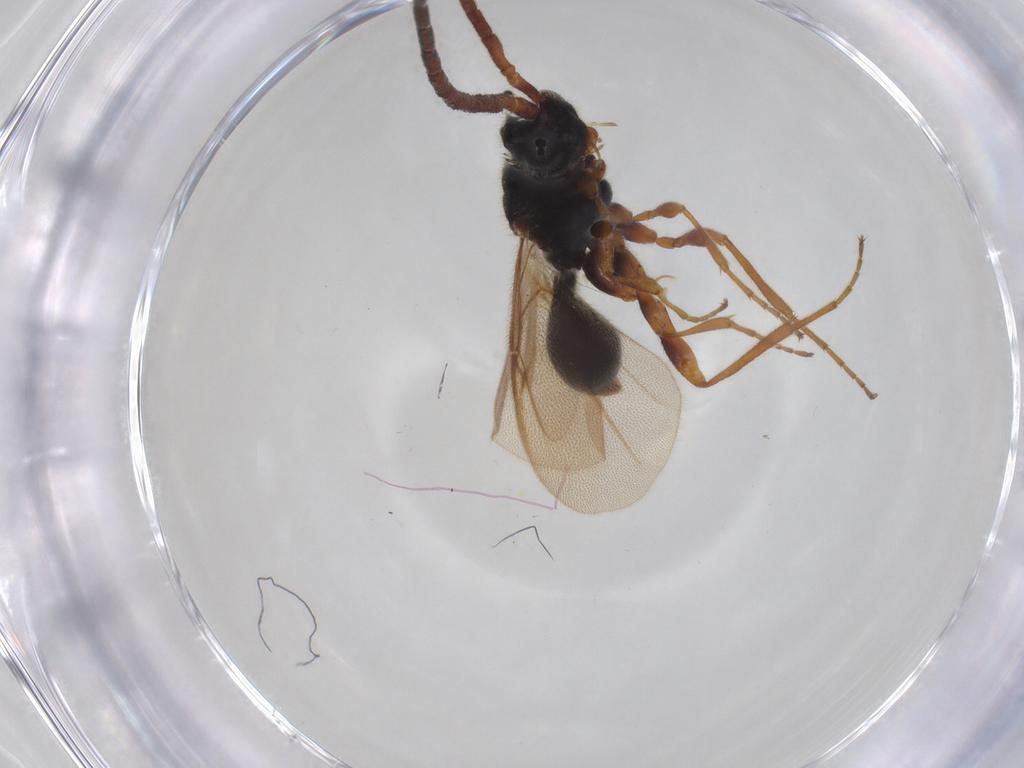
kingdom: Animalia
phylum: Arthropoda
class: Insecta
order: Hymenoptera
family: Diapriidae
